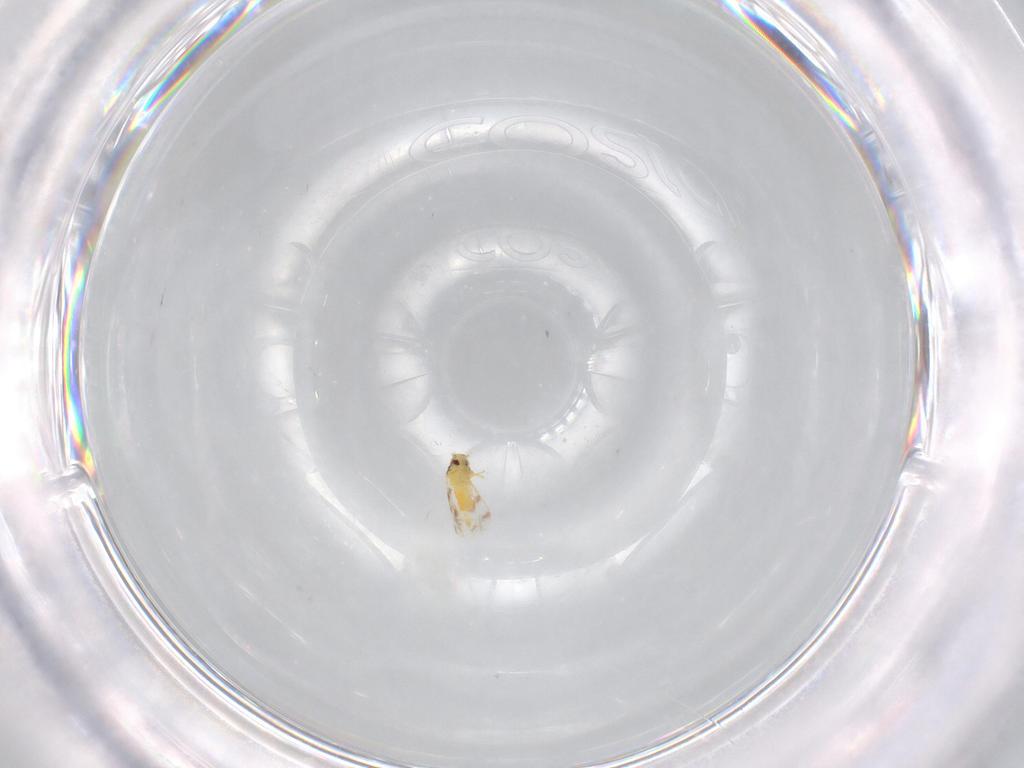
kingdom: Animalia
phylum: Arthropoda
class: Insecta
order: Hemiptera
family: Aleyrodidae
